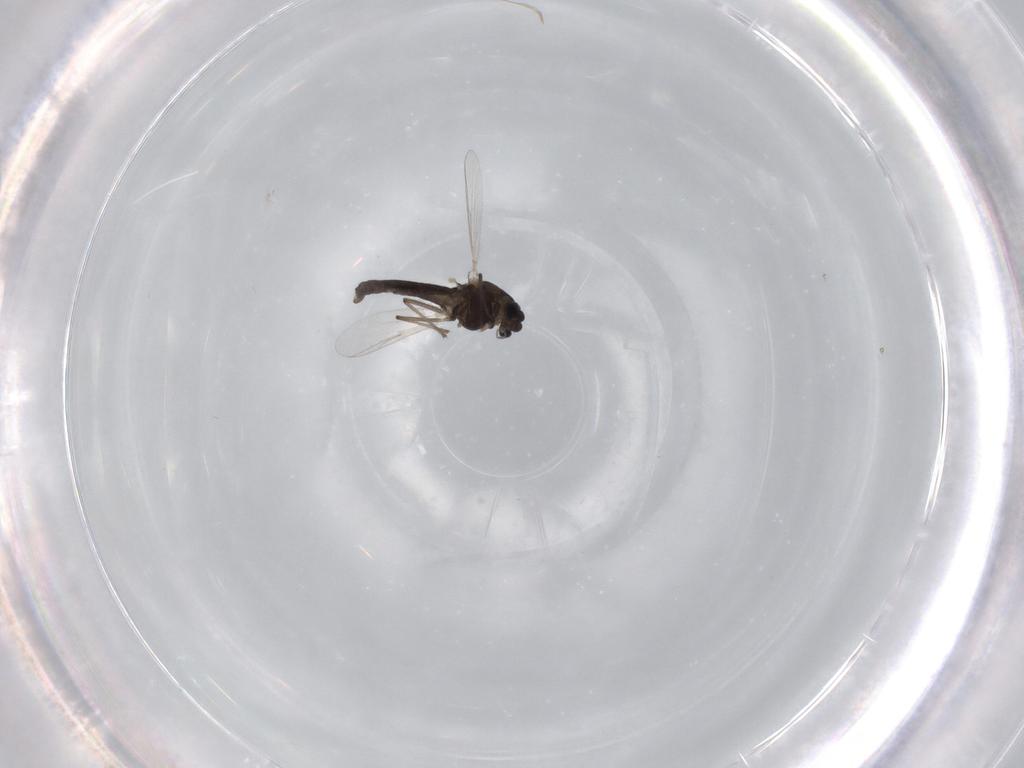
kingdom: Animalia
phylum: Arthropoda
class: Insecta
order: Diptera
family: Chironomidae
